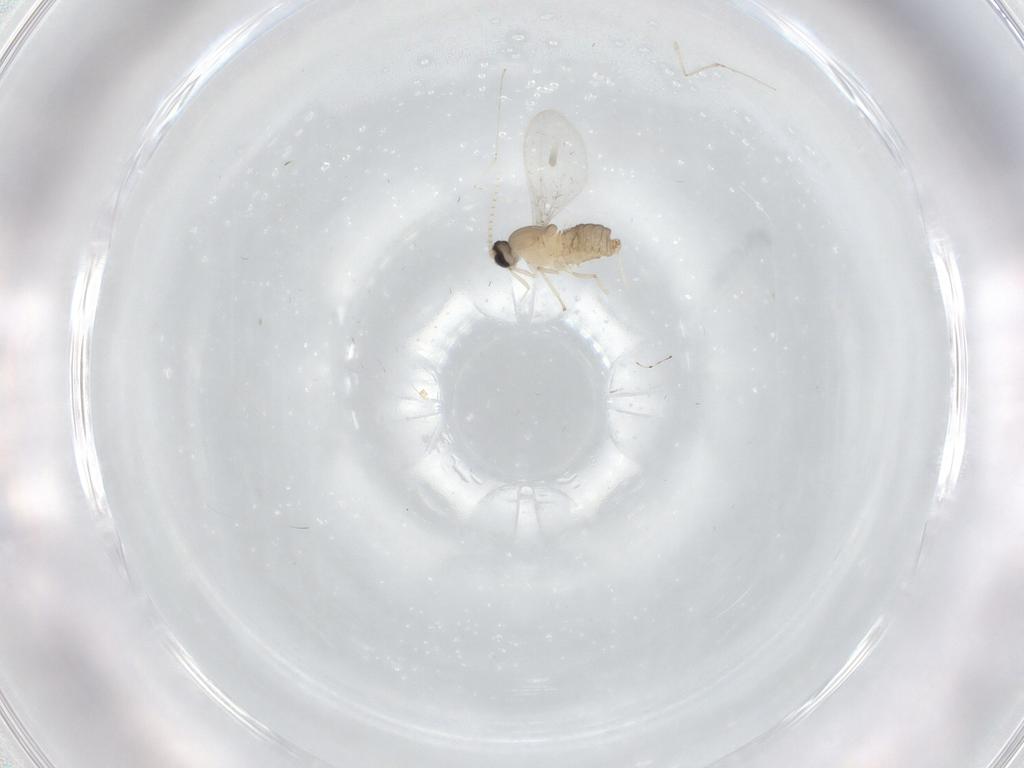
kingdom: Animalia
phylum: Arthropoda
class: Insecta
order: Diptera
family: Cecidomyiidae
